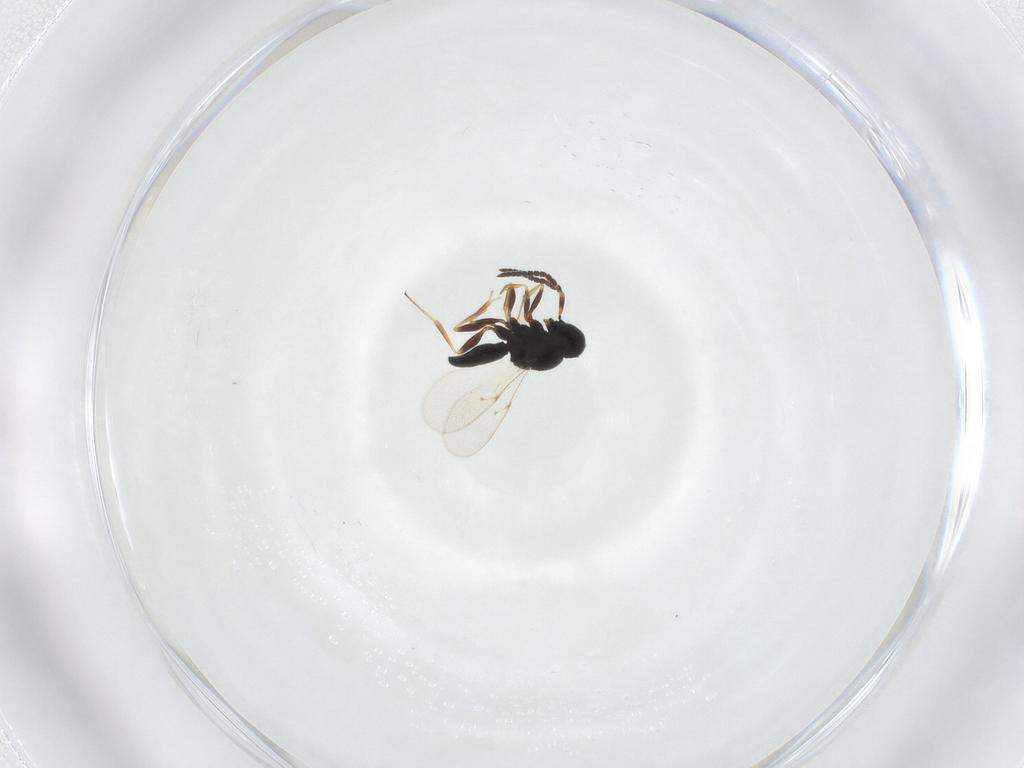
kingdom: Animalia
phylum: Arthropoda
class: Insecta
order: Hymenoptera
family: Scelionidae
